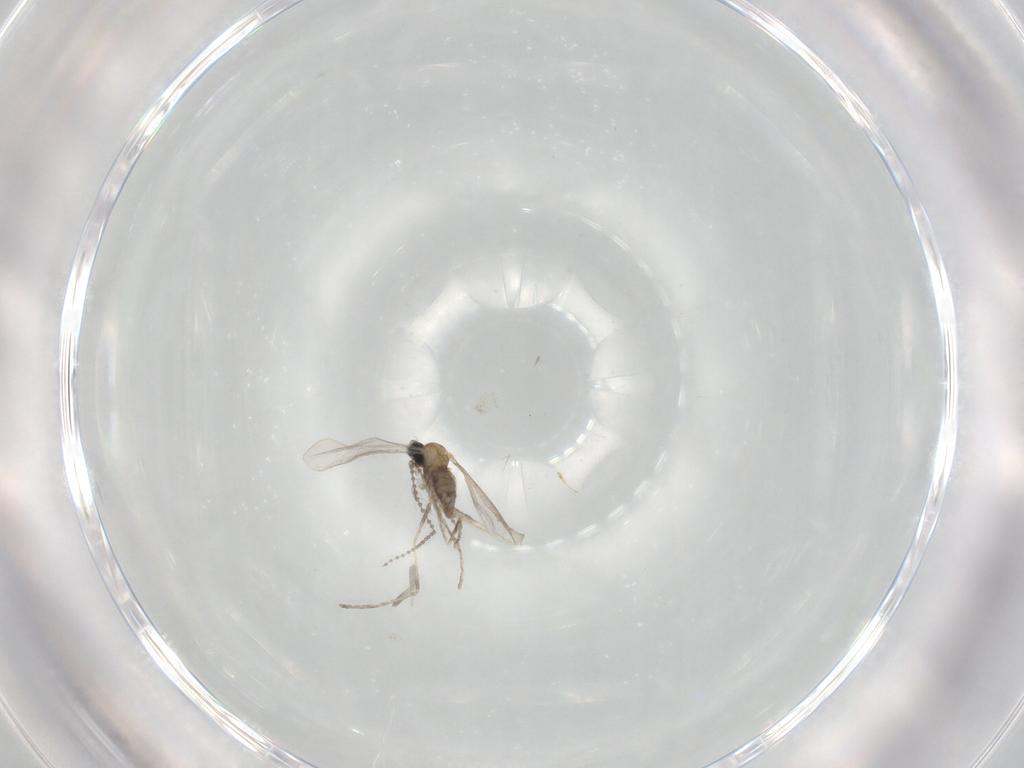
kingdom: Animalia
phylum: Arthropoda
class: Insecta
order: Diptera
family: Cecidomyiidae
